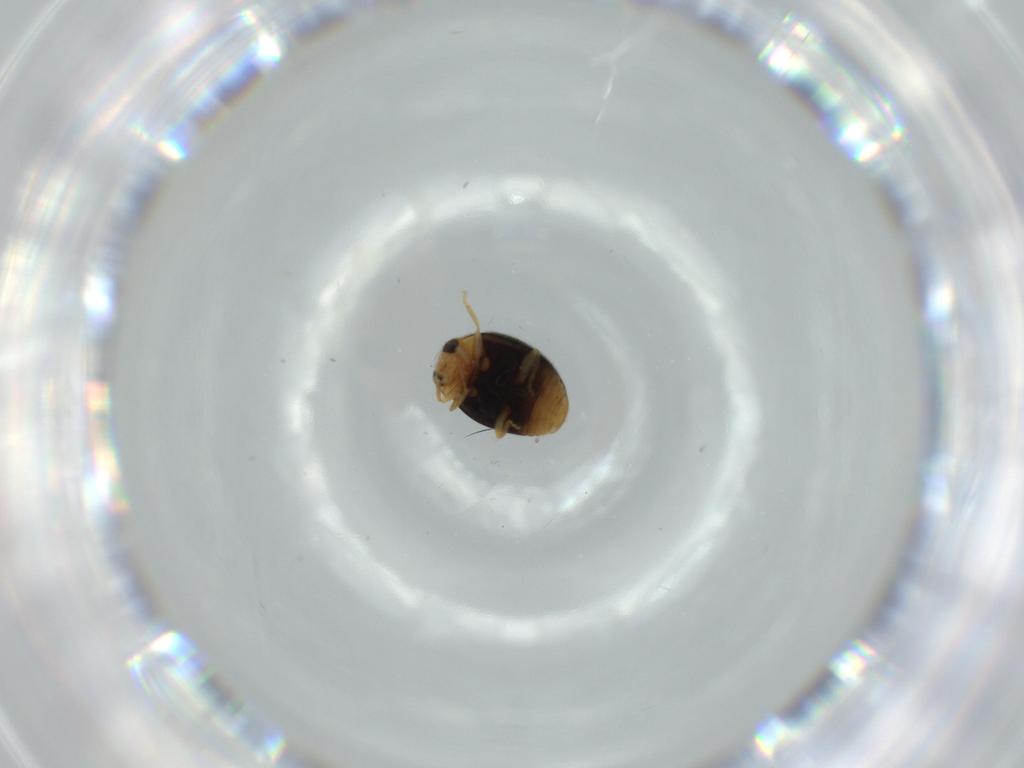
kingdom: Animalia
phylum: Arthropoda
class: Insecta
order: Coleoptera
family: Coccinellidae
